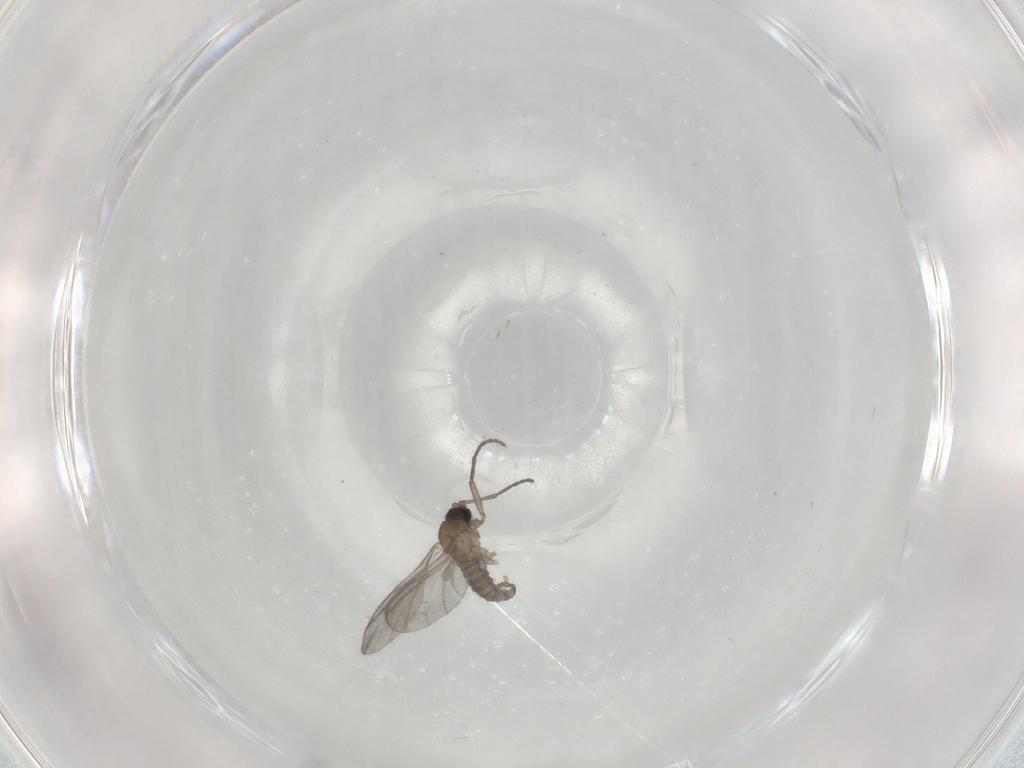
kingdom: Animalia
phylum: Arthropoda
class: Insecta
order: Diptera
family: Sciaridae
